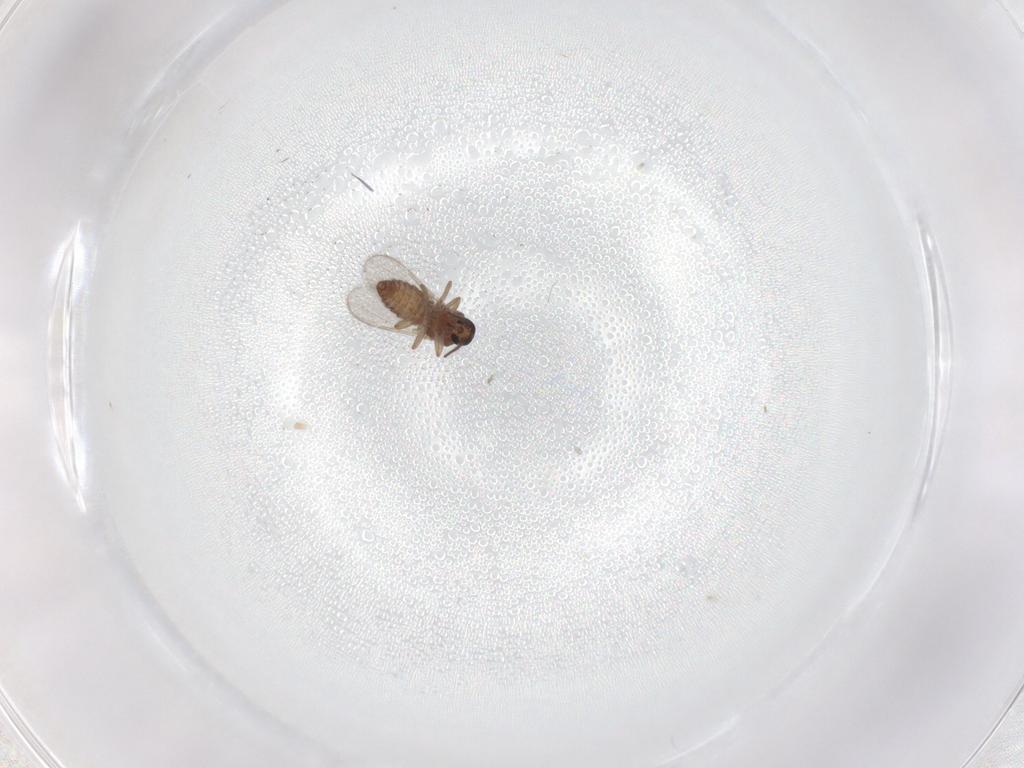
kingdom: Animalia
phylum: Arthropoda
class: Insecta
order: Diptera
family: Ceratopogonidae
